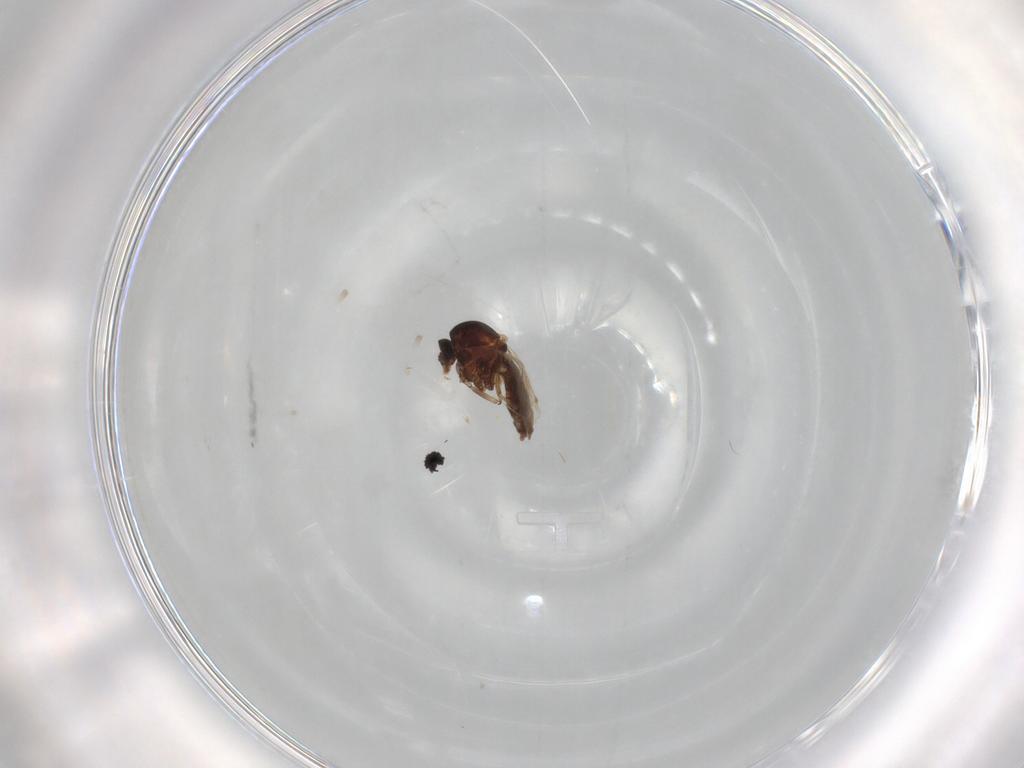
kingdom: Animalia
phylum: Arthropoda
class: Insecta
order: Diptera
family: Ceratopogonidae
